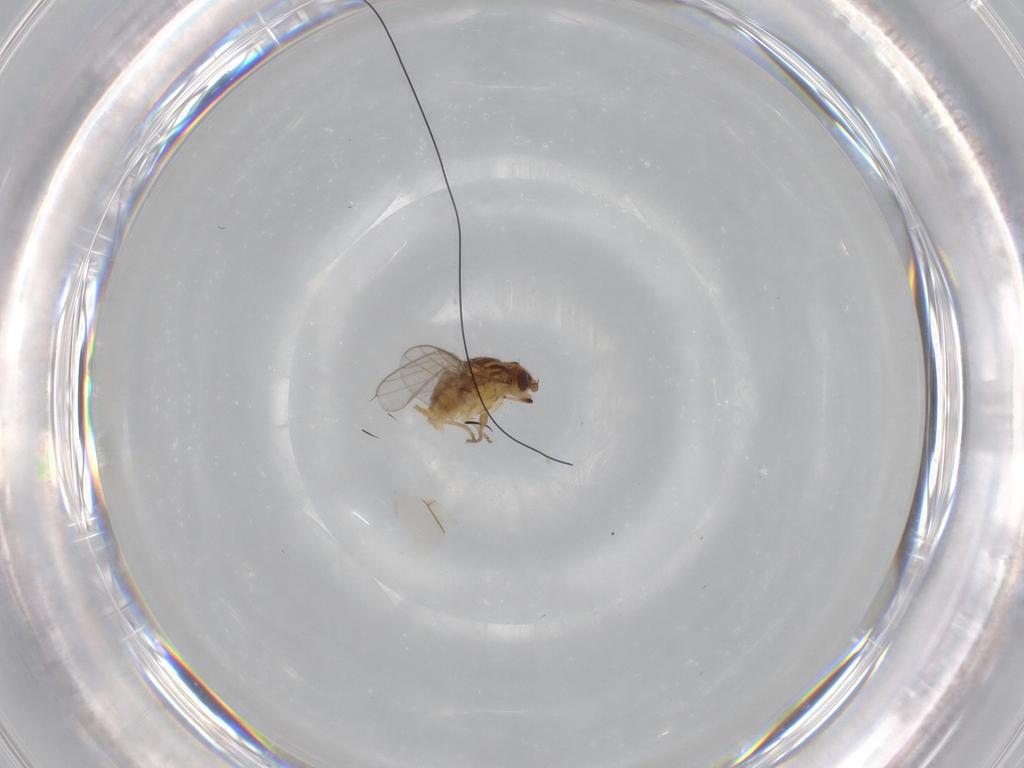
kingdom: Animalia
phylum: Arthropoda
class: Insecta
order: Diptera
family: Chloropidae
